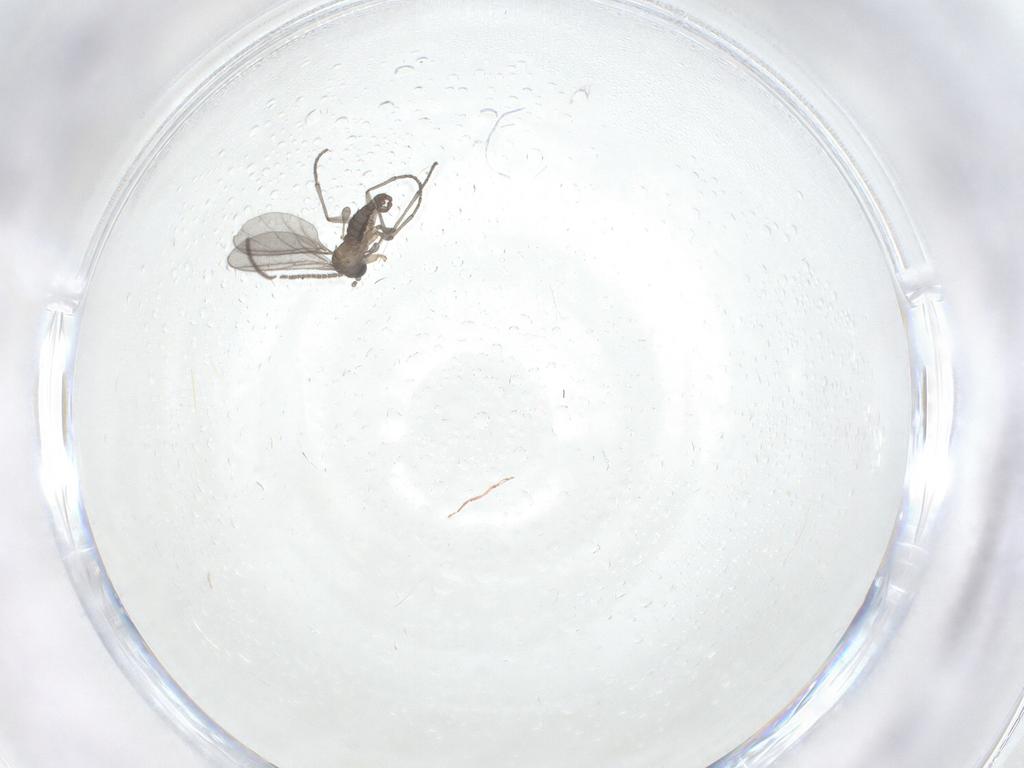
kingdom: Animalia
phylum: Arthropoda
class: Insecta
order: Diptera
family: Sciaridae
